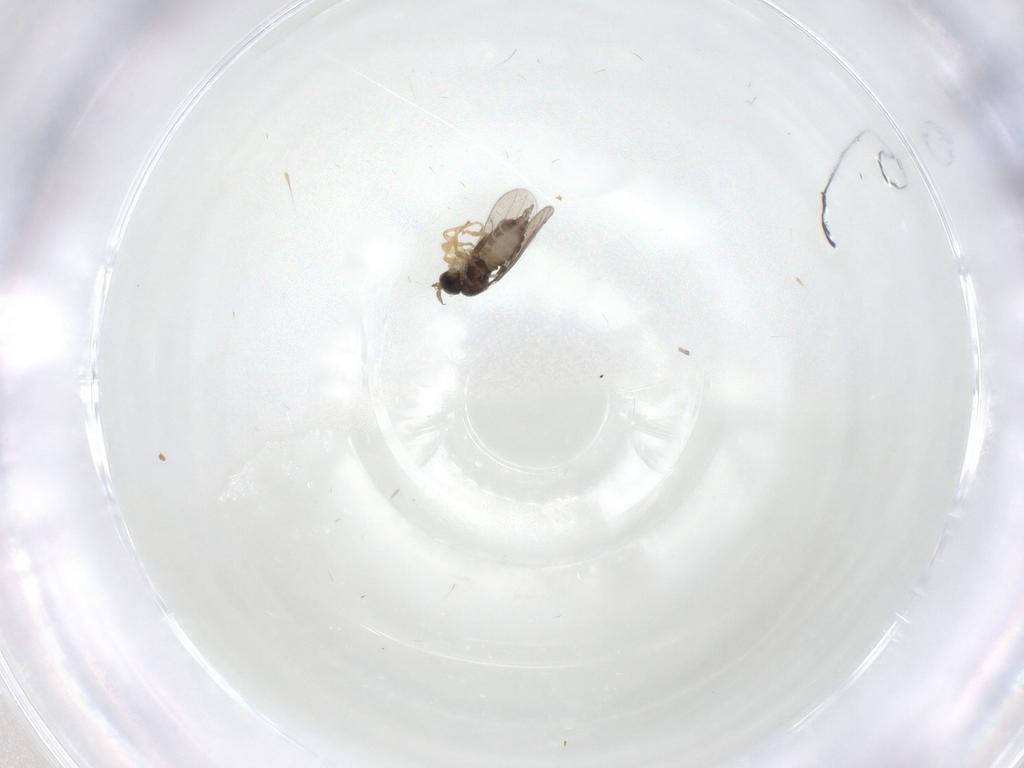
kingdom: Animalia
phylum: Arthropoda
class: Insecta
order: Diptera
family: Hybotidae
